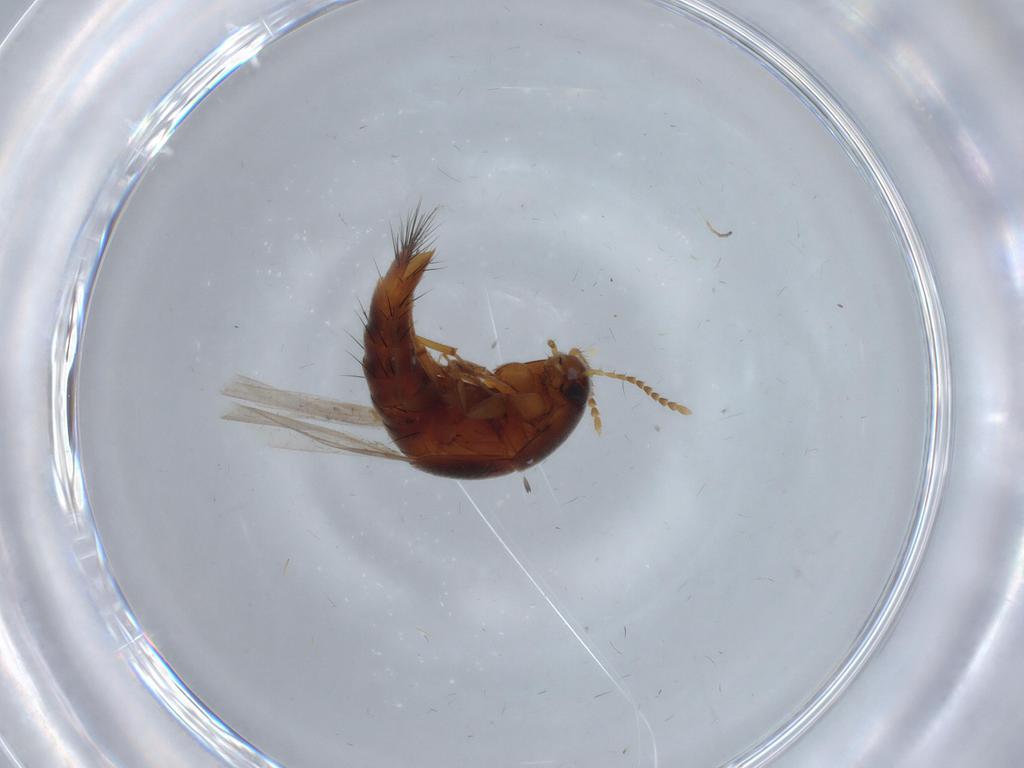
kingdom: Animalia
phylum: Arthropoda
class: Insecta
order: Coleoptera
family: Staphylinidae
